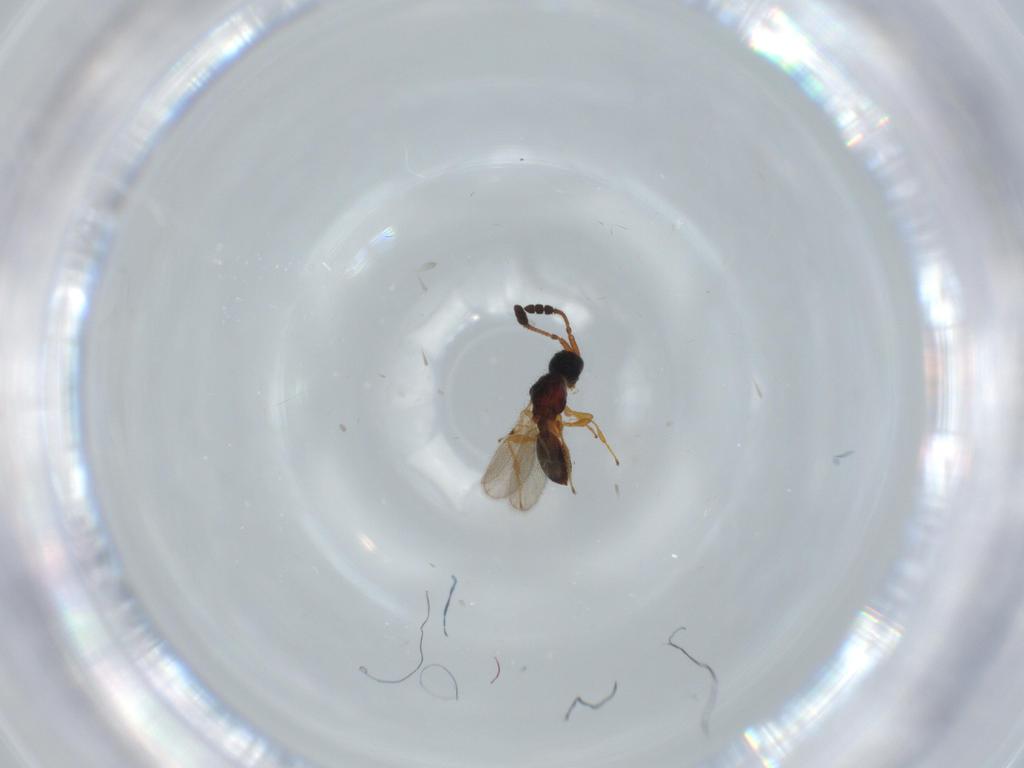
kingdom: Animalia
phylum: Arthropoda
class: Insecta
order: Hymenoptera
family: Diapriidae
